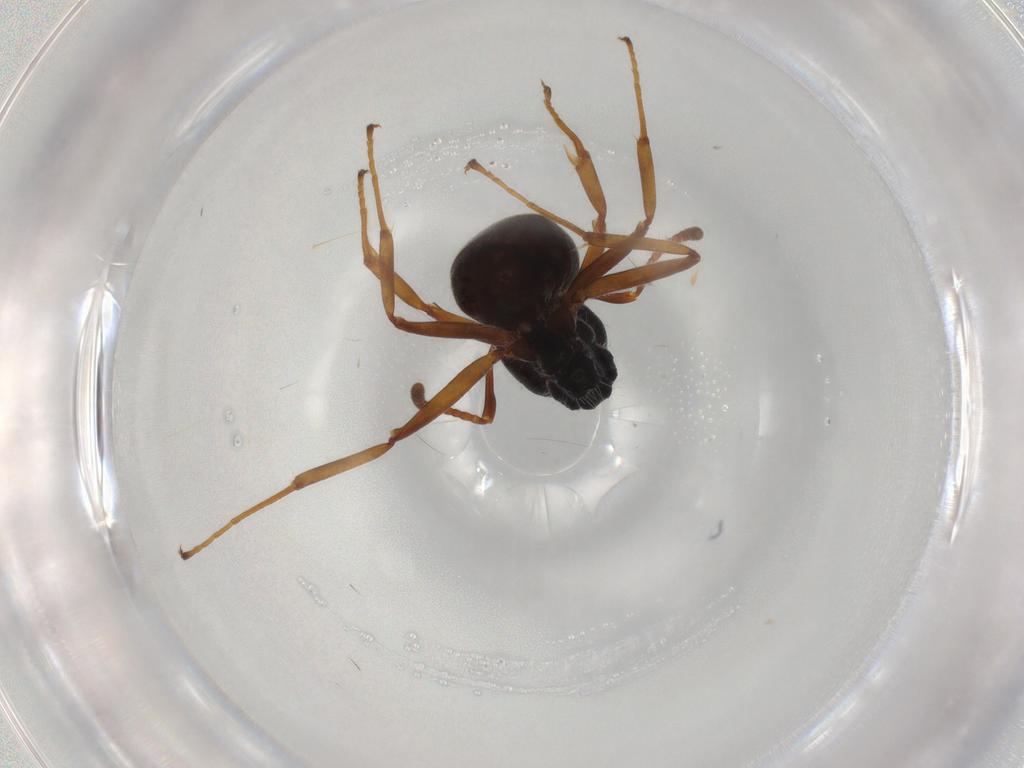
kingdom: Animalia
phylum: Arthropoda
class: Insecta
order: Hymenoptera
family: Formicidae
